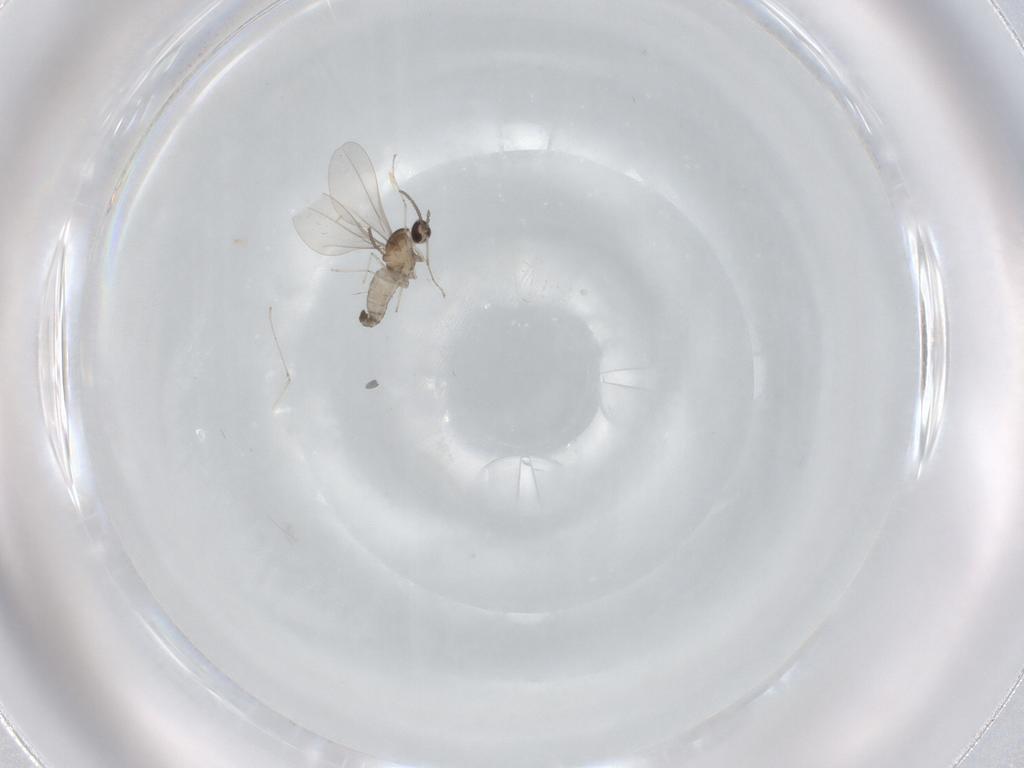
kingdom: Animalia
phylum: Arthropoda
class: Insecta
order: Diptera
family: Cecidomyiidae
